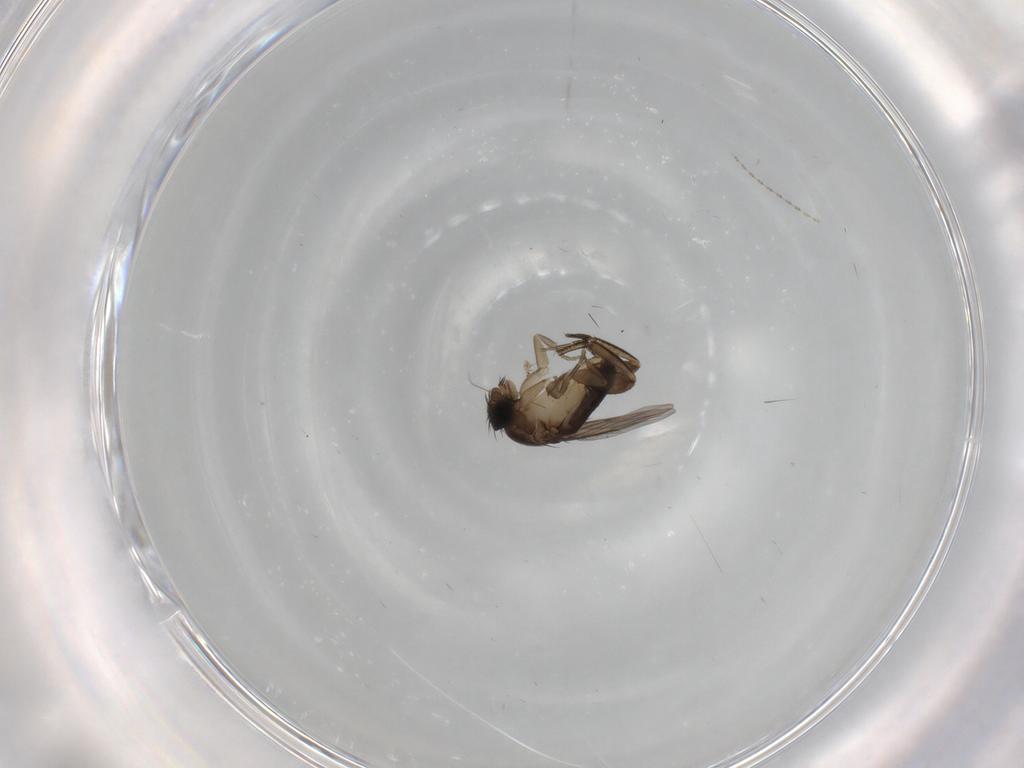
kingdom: Animalia
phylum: Arthropoda
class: Insecta
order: Diptera
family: Phoridae
